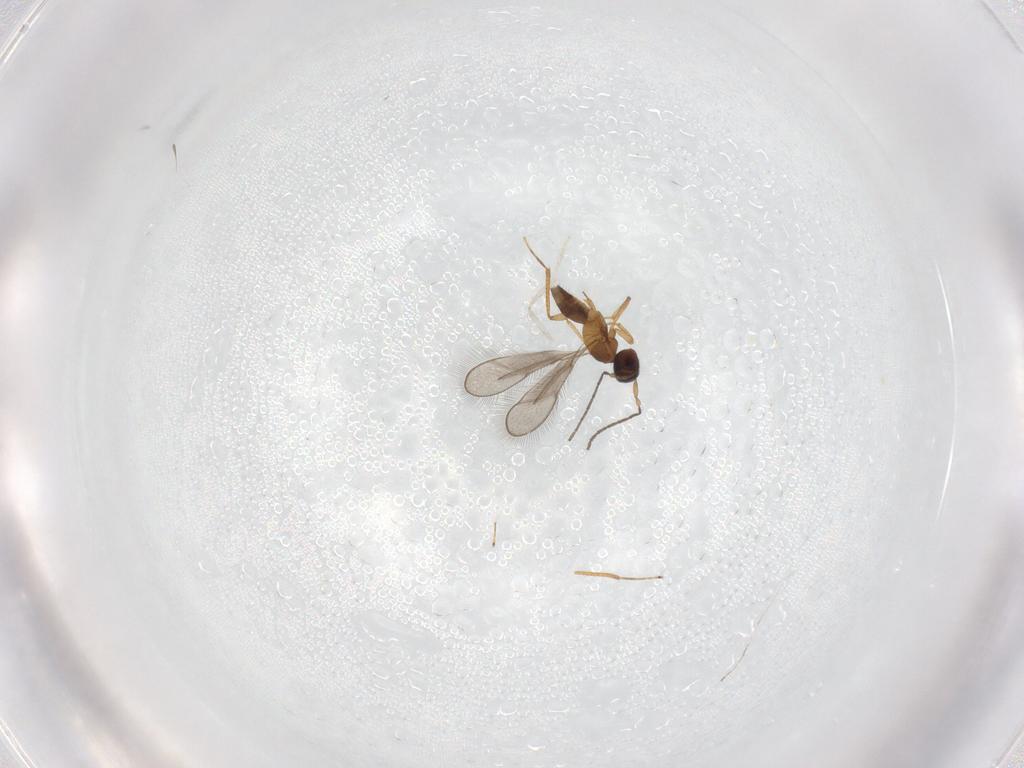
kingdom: Animalia
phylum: Arthropoda
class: Insecta
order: Hymenoptera
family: Mymaridae
